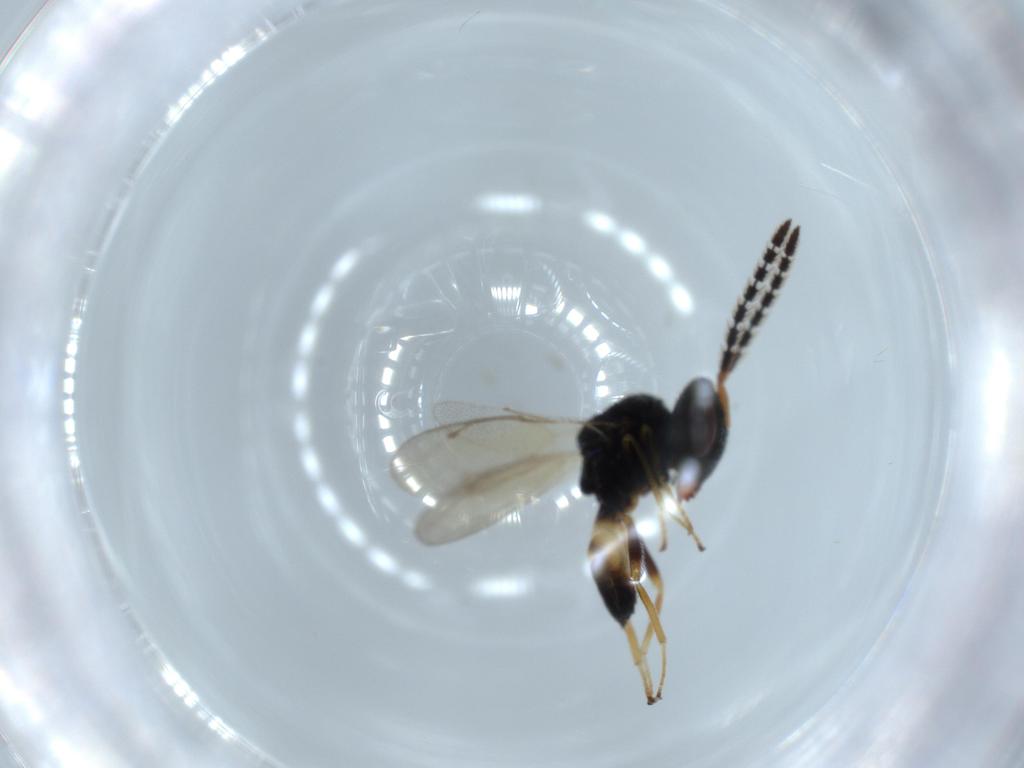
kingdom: Animalia
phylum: Arthropoda
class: Insecta
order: Hymenoptera
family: Pteromalidae
